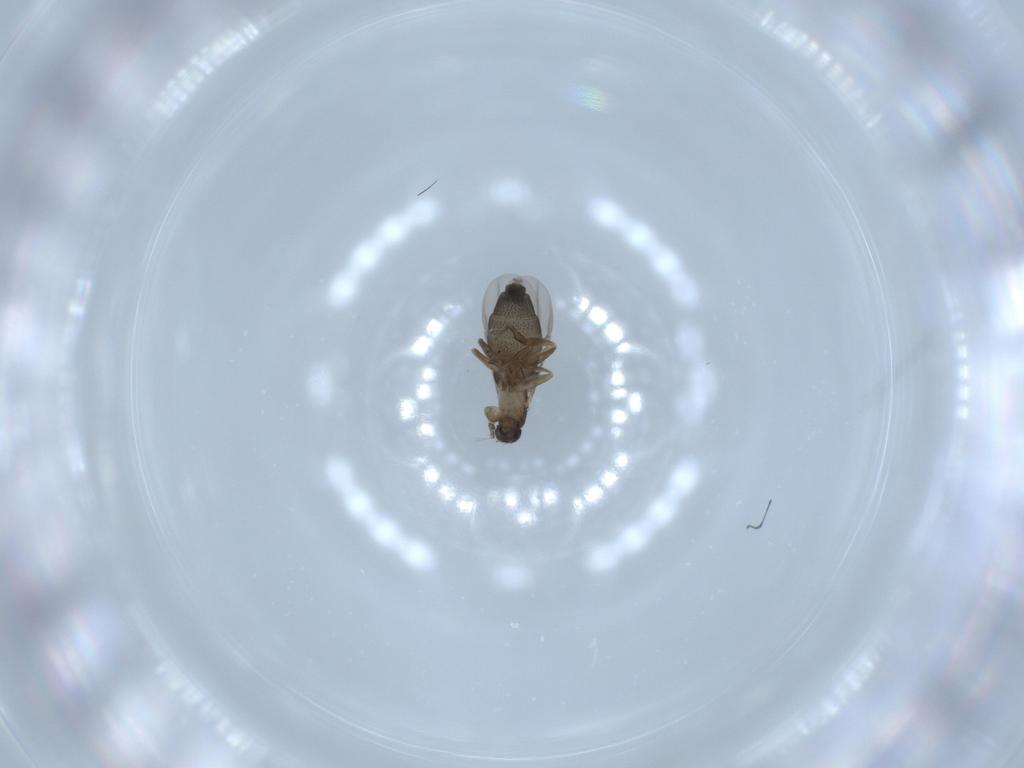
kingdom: Animalia
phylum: Arthropoda
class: Insecta
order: Diptera
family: Phoridae
